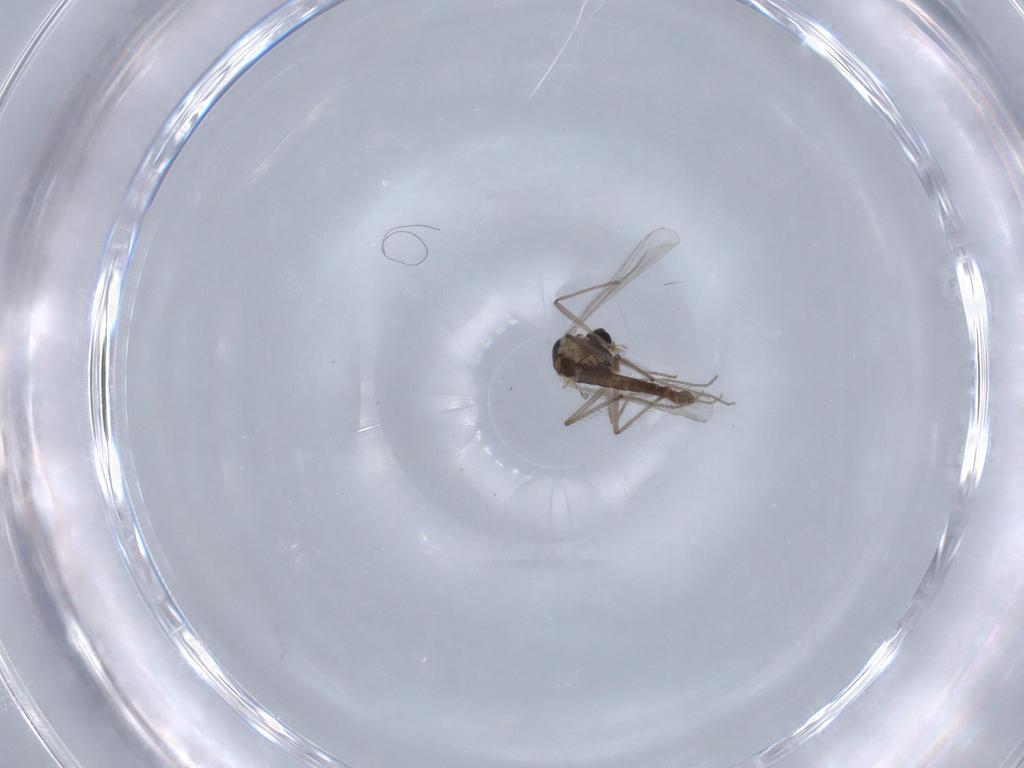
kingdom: Animalia
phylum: Arthropoda
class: Insecta
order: Diptera
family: Chironomidae
